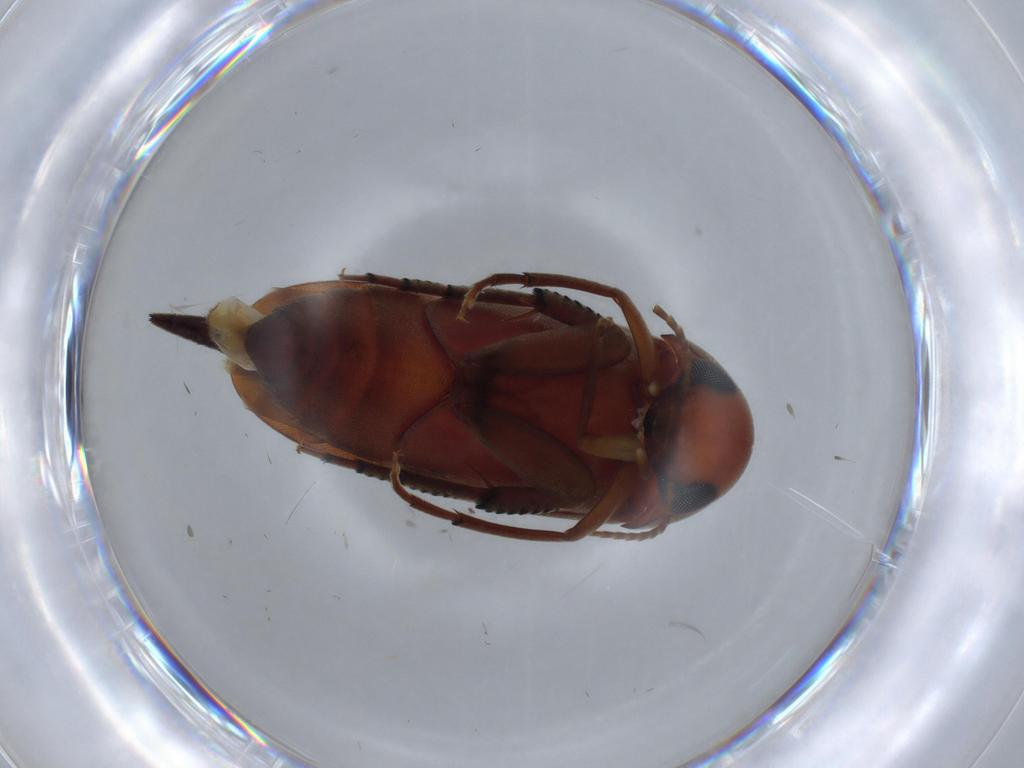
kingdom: Animalia
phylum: Arthropoda
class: Insecta
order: Coleoptera
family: Mordellidae
